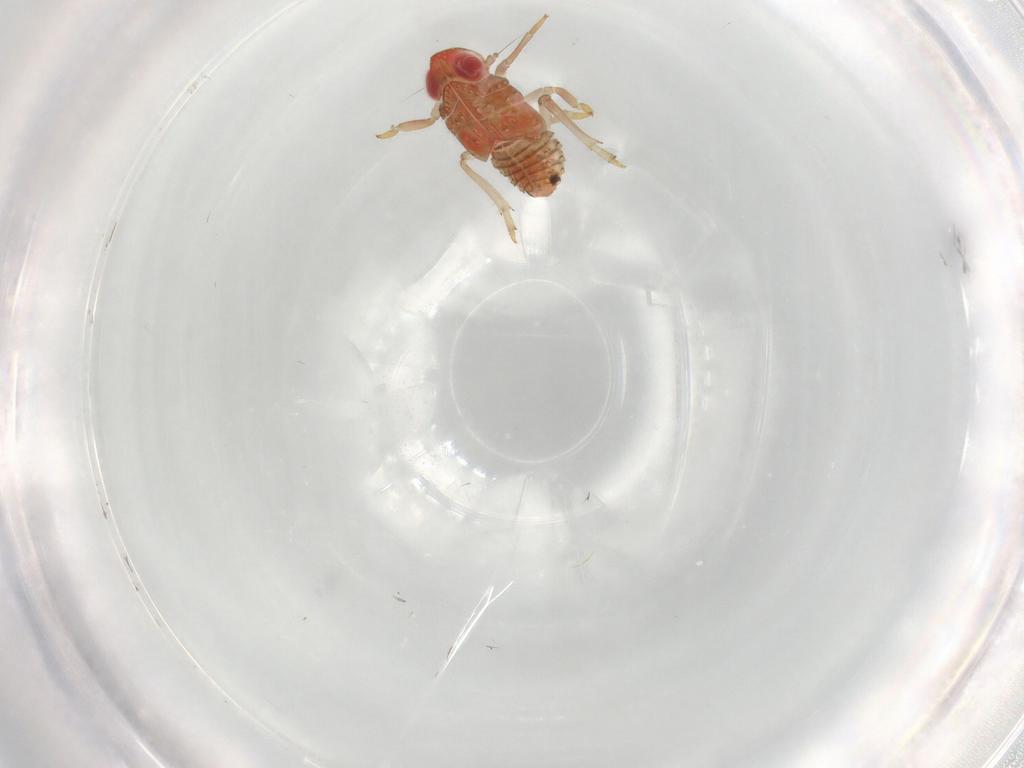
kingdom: Animalia
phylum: Arthropoda
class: Insecta
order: Hemiptera
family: Issidae
